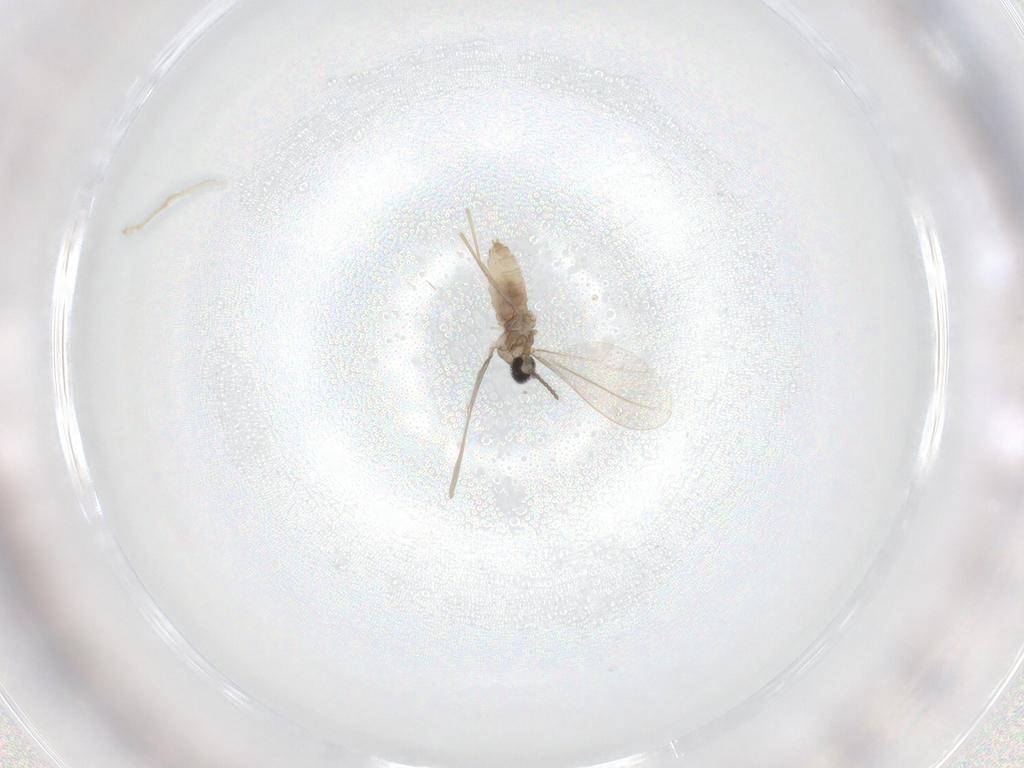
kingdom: Animalia
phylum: Arthropoda
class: Insecta
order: Diptera
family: Cecidomyiidae
